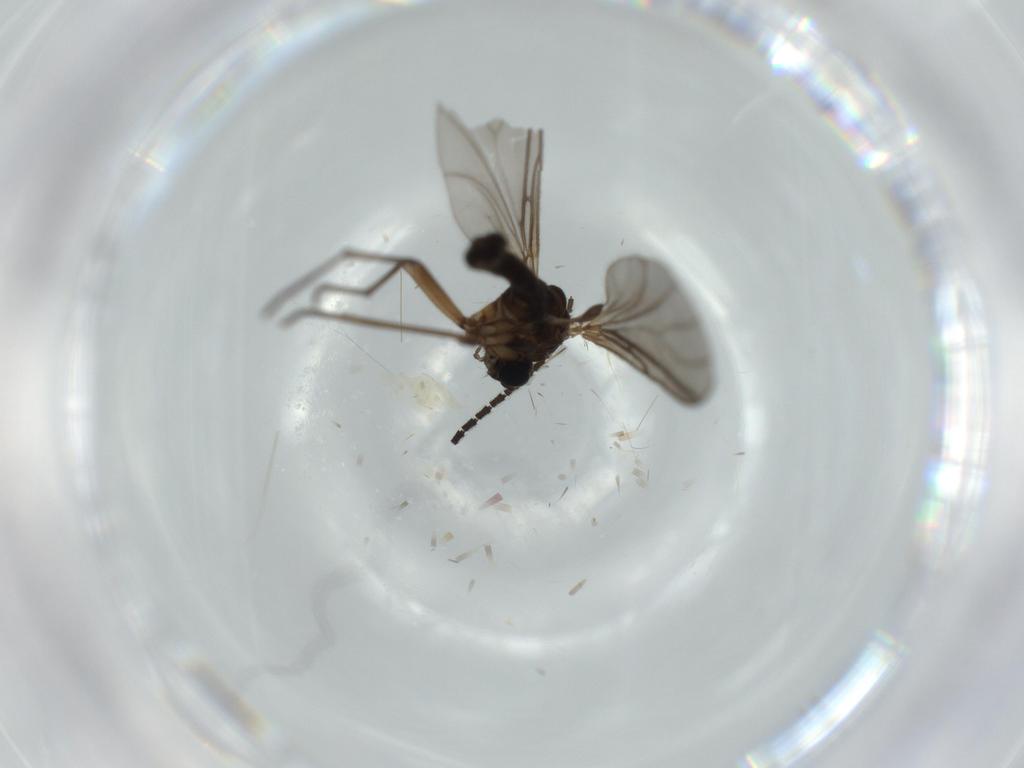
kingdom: Animalia
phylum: Arthropoda
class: Insecta
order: Diptera
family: Sciaridae
